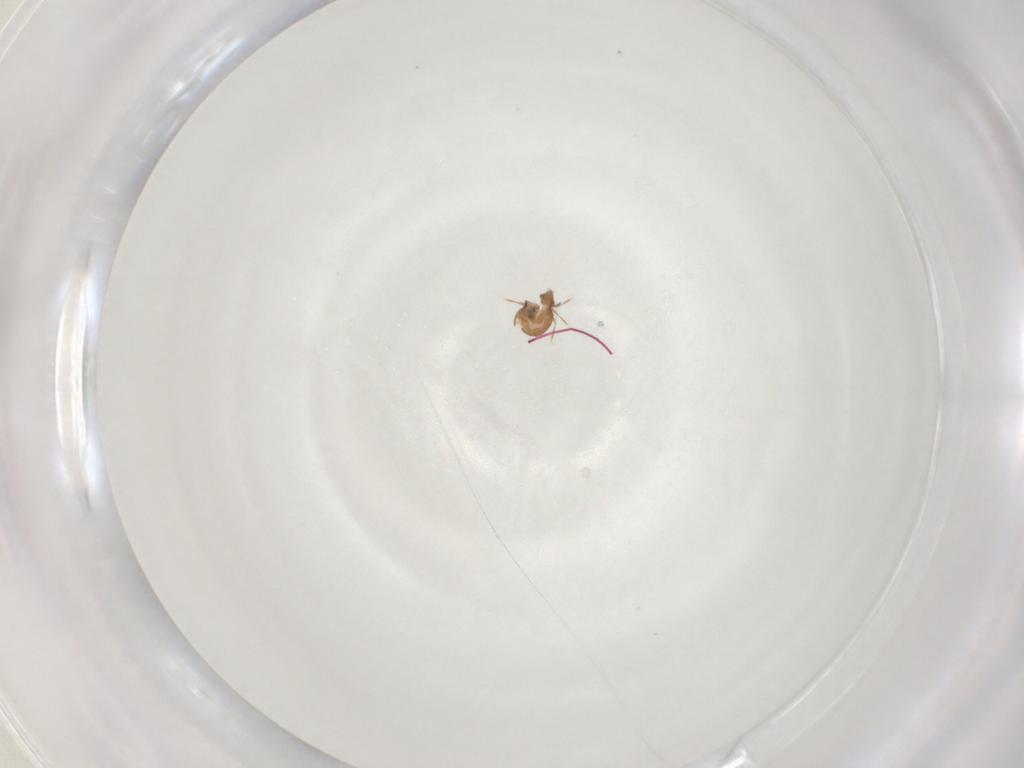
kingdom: Animalia
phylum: Arthropoda
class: Arachnida
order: Sarcoptiformes
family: Oribatulidae
